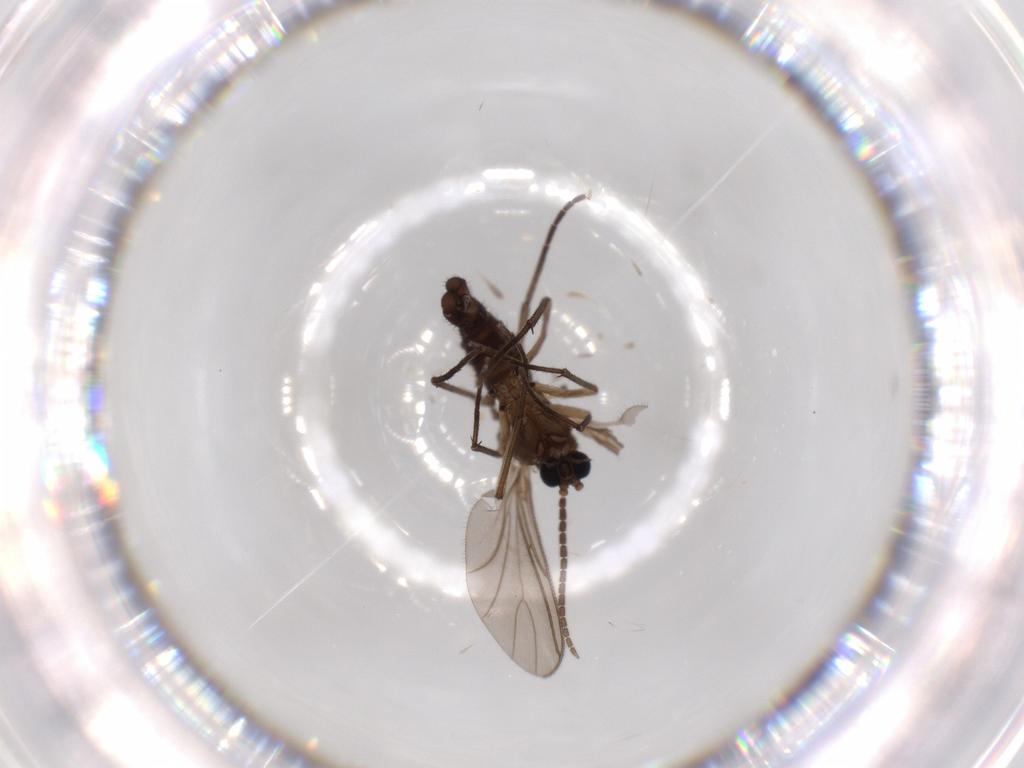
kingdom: Animalia
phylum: Arthropoda
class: Insecta
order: Diptera
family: Sciaridae
